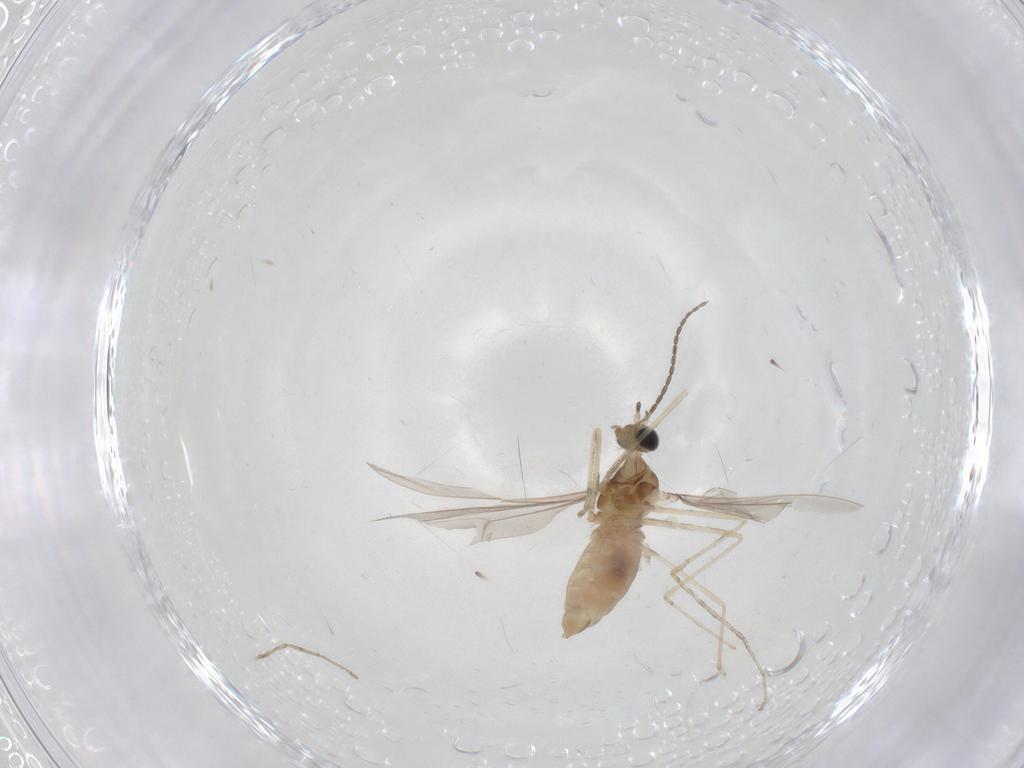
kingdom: Animalia
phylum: Arthropoda
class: Insecta
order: Diptera
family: Cecidomyiidae
